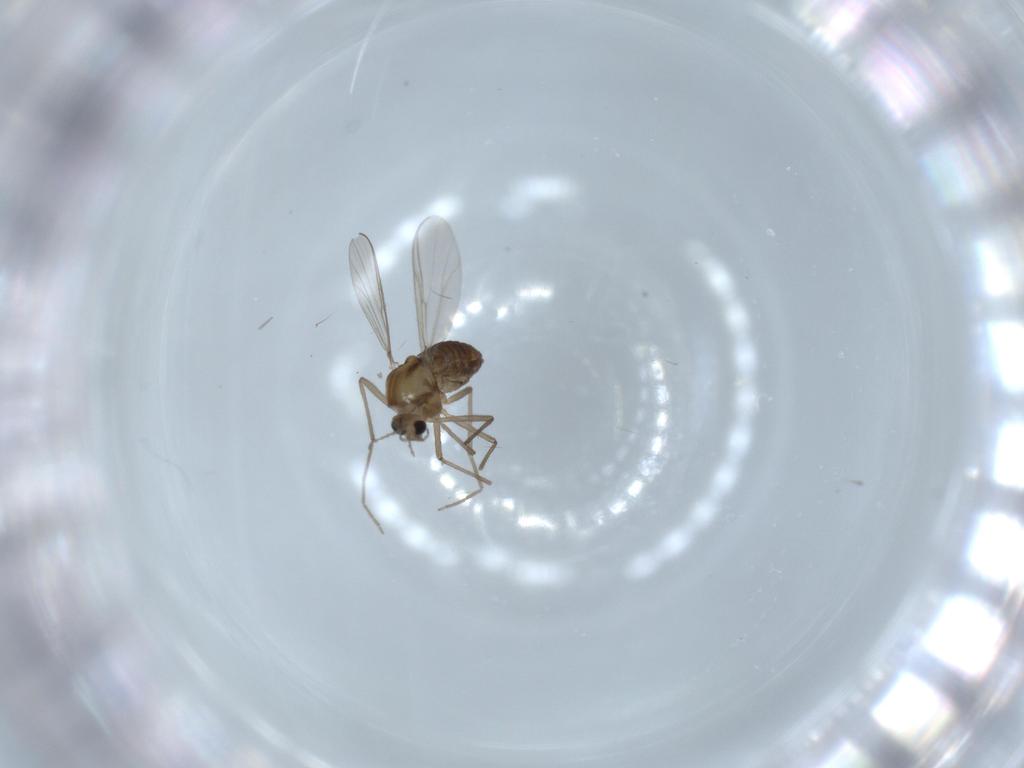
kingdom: Animalia
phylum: Arthropoda
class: Insecta
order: Diptera
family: Chironomidae
